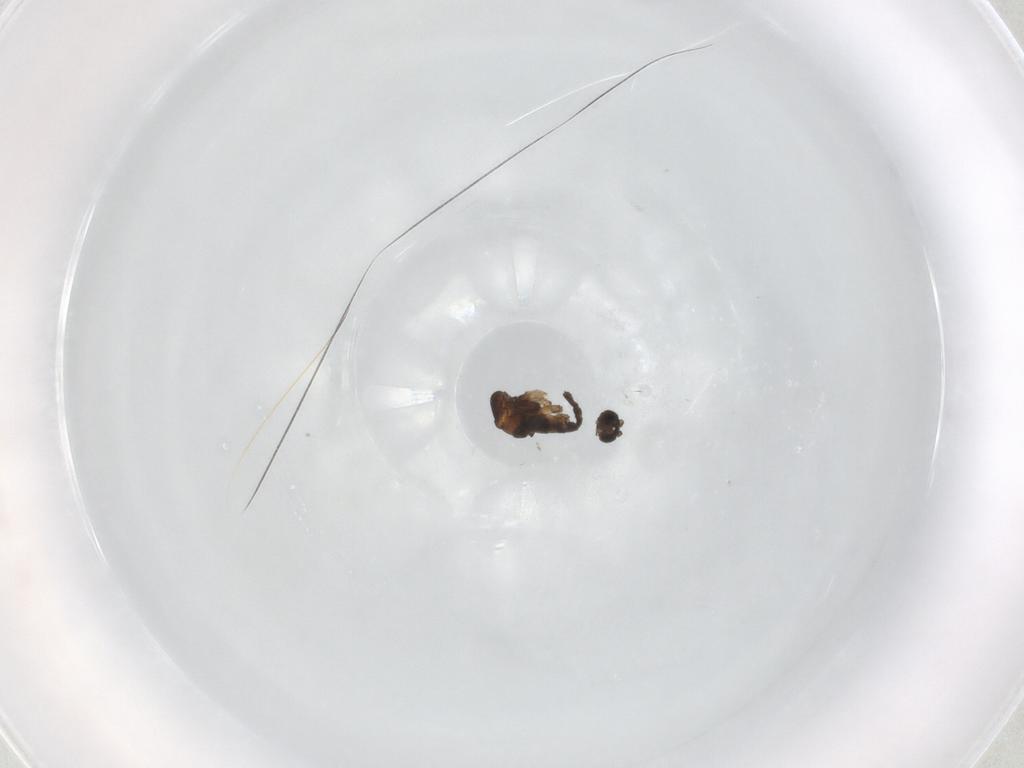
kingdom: Animalia
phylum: Arthropoda
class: Insecta
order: Diptera
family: Sciaridae
